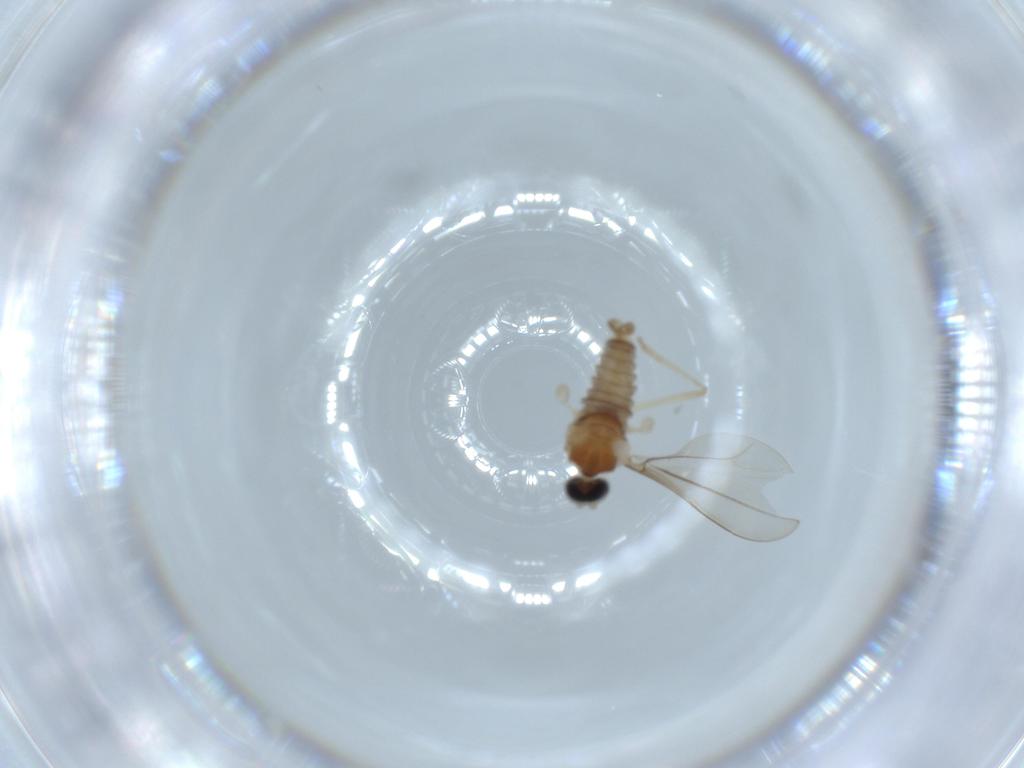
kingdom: Animalia
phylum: Arthropoda
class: Insecta
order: Diptera
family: Cecidomyiidae
